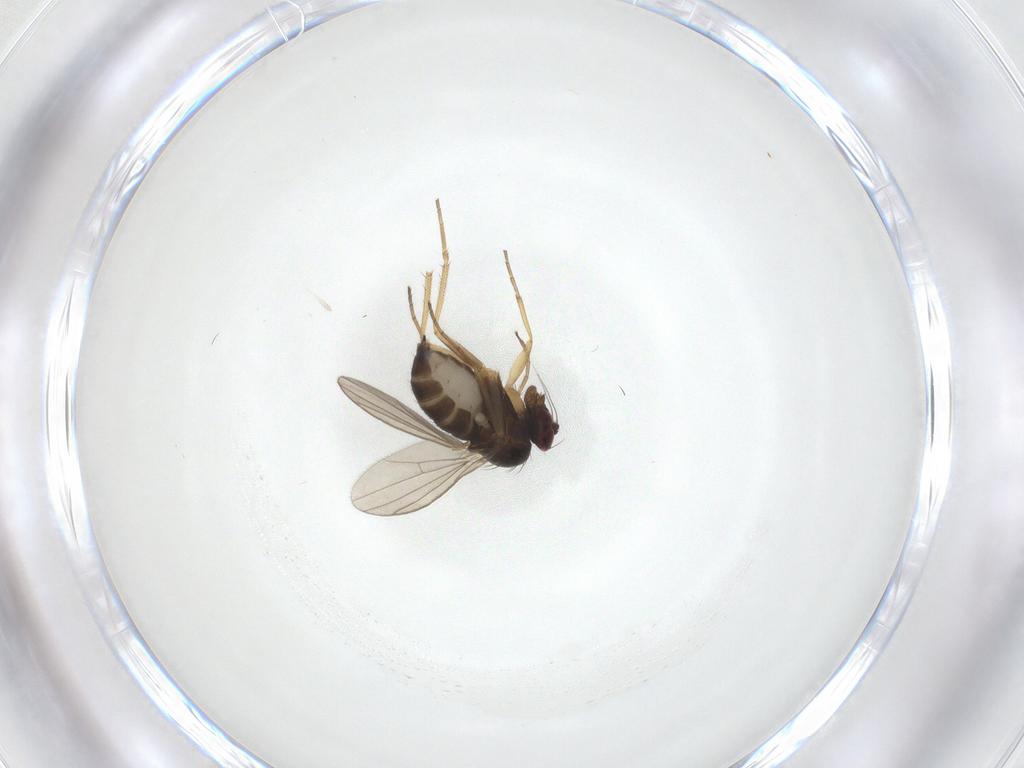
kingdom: Animalia
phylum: Arthropoda
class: Insecta
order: Diptera
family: Dolichopodidae
